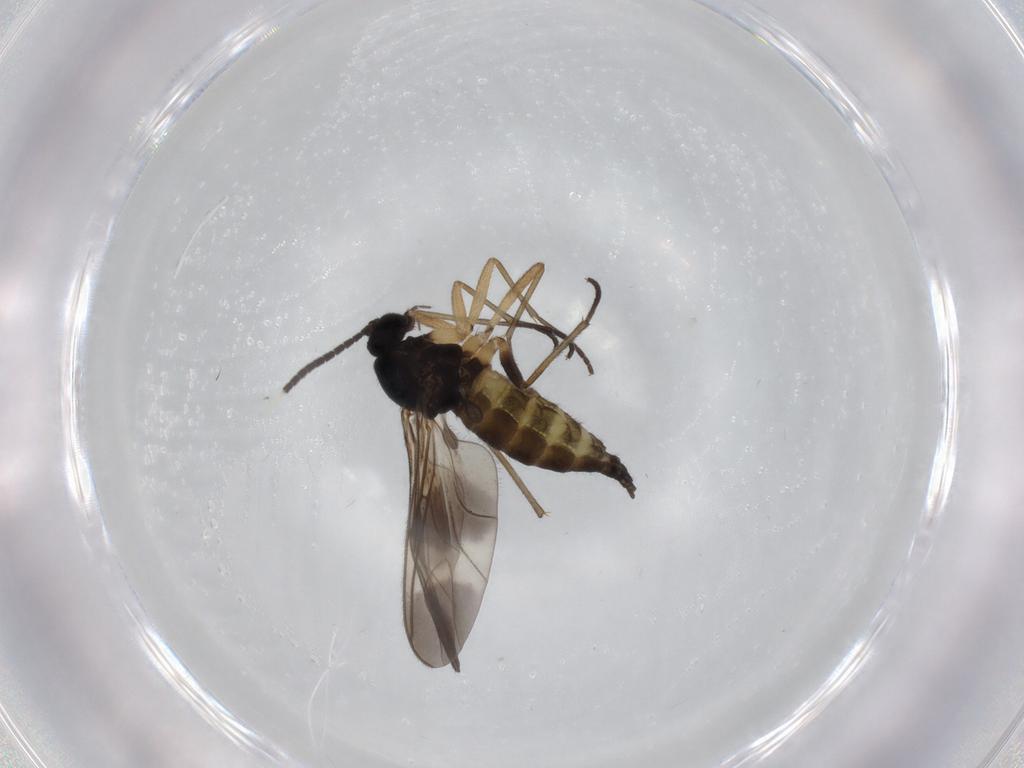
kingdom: Animalia
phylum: Arthropoda
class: Insecta
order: Diptera
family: Sciaridae
